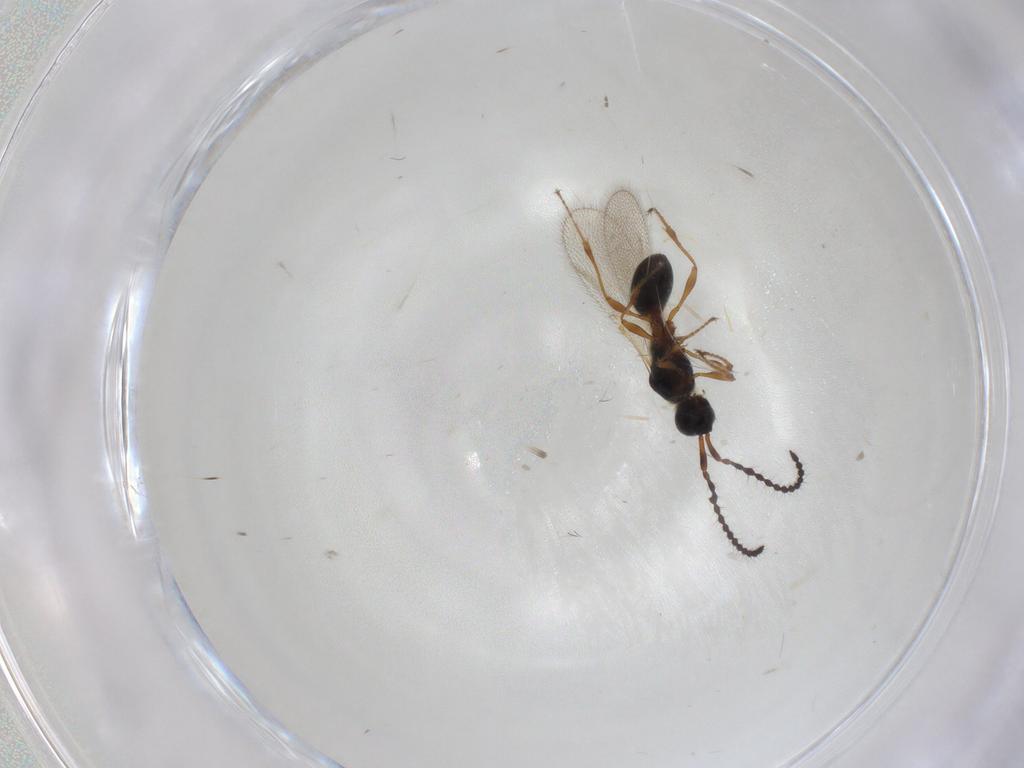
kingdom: Animalia
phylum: Arthropoda
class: Insecta
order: Hymenoptera
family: Diapriidae
